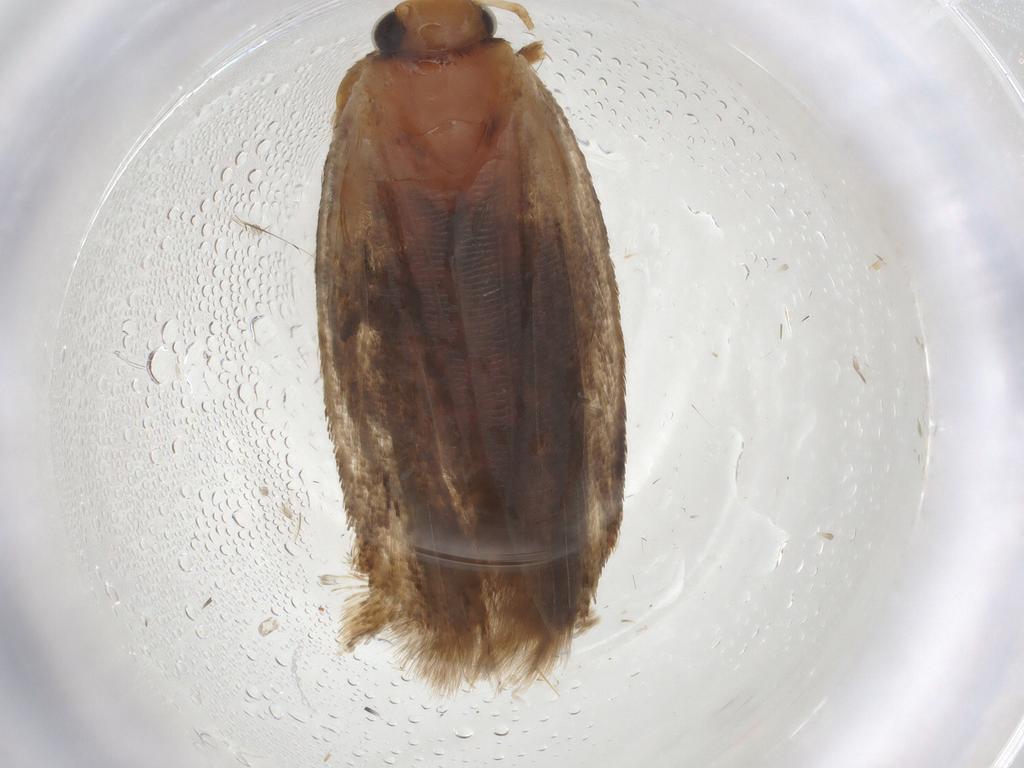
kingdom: Animalia
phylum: Arthropoda
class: Insecta
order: Lepidoptera
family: Gelechiidae
